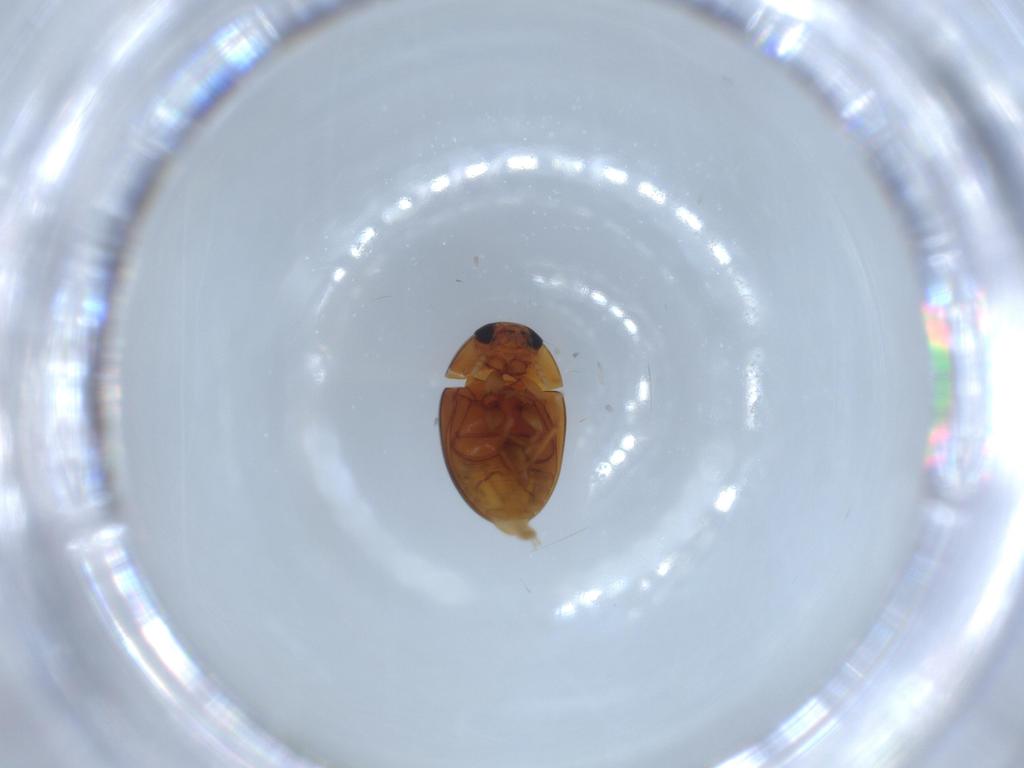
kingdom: Animalia
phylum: Arthropoda
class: Insecta
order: Coleoptera
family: Phalacridae
